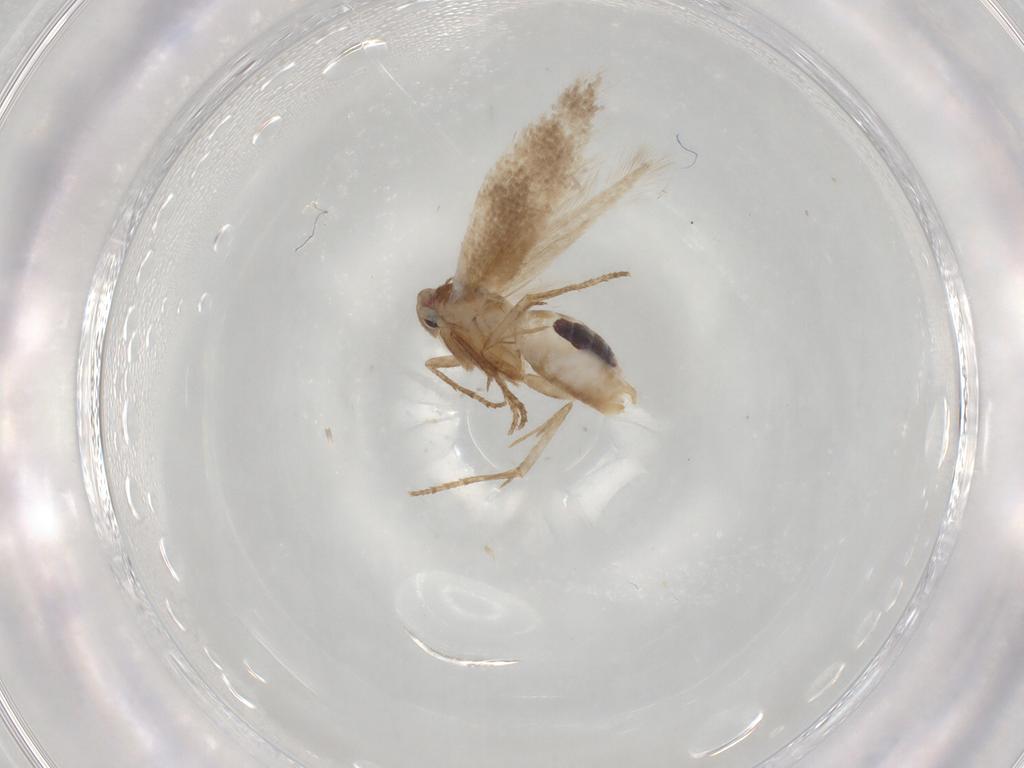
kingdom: Animalia
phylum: Arthropoda
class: Insecta
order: Lepidoptera
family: Bucculatricidae
